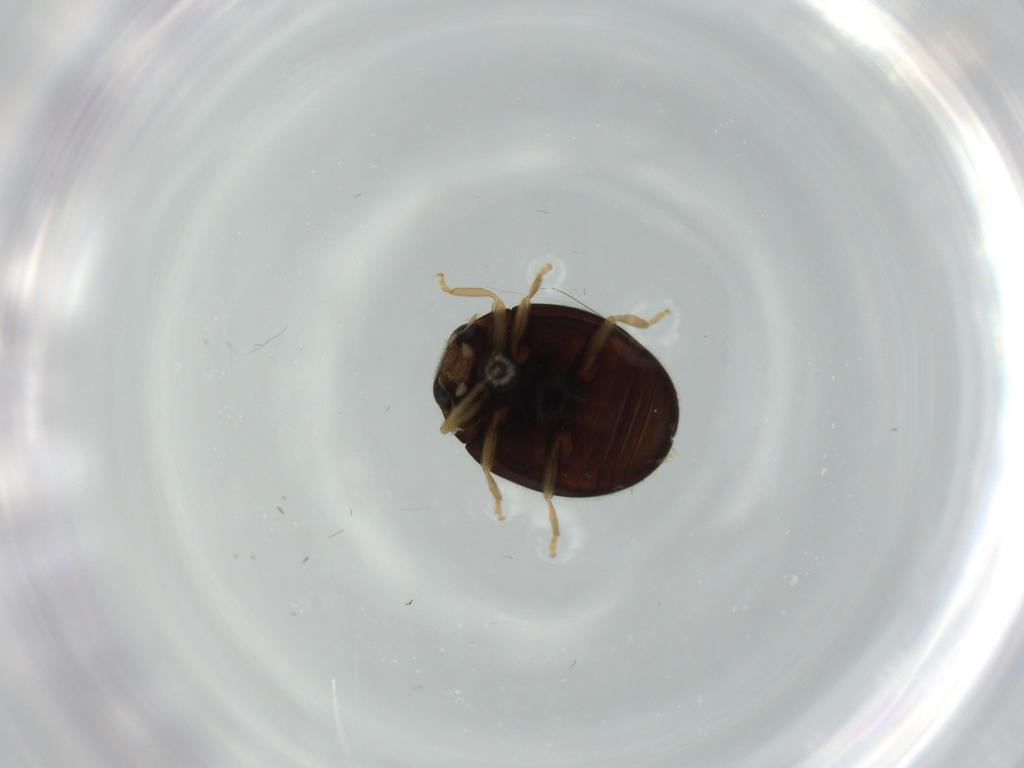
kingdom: Animalia
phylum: Arthropoda
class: Insecta
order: Coleoptera
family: Coccinellidae
